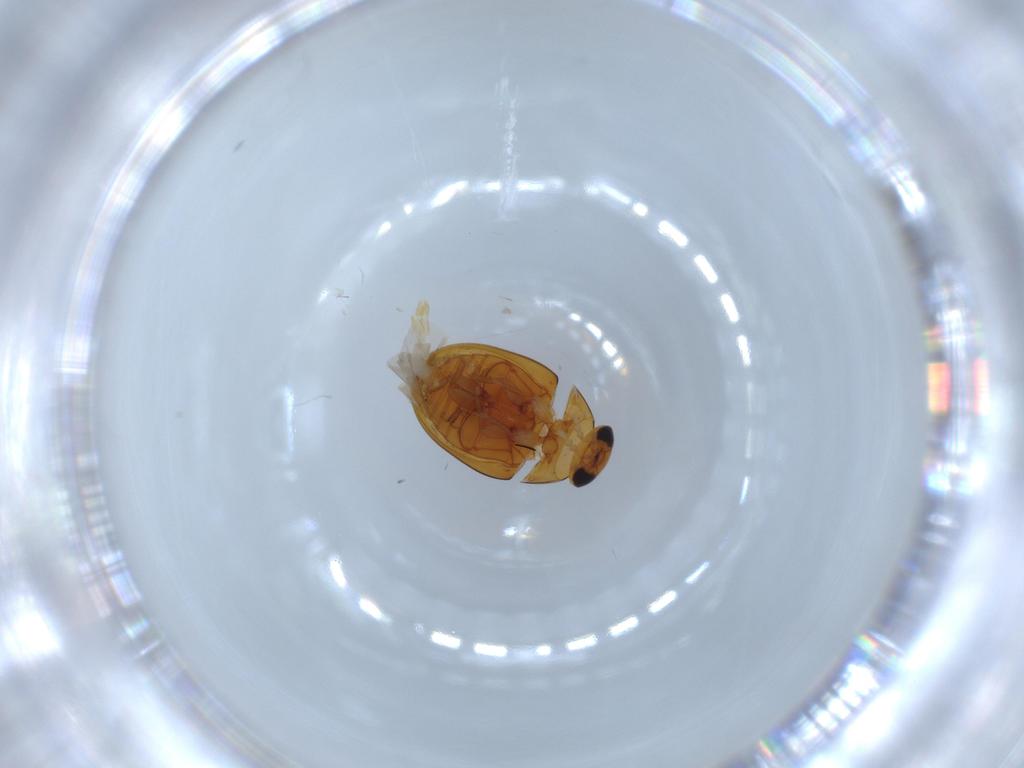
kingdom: Animalia
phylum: Arthropoda
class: Insecta
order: Coleoptera
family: Phalacridae
